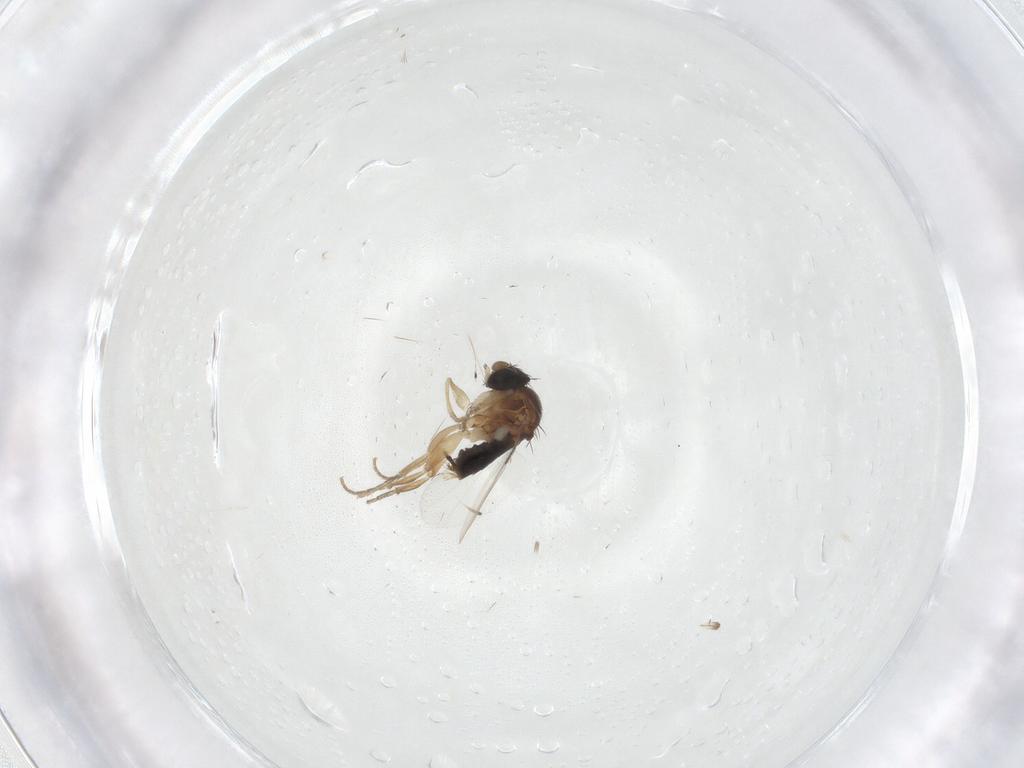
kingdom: Animalia
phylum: Arthropoda
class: Insecta
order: Diptera
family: Phoridae
